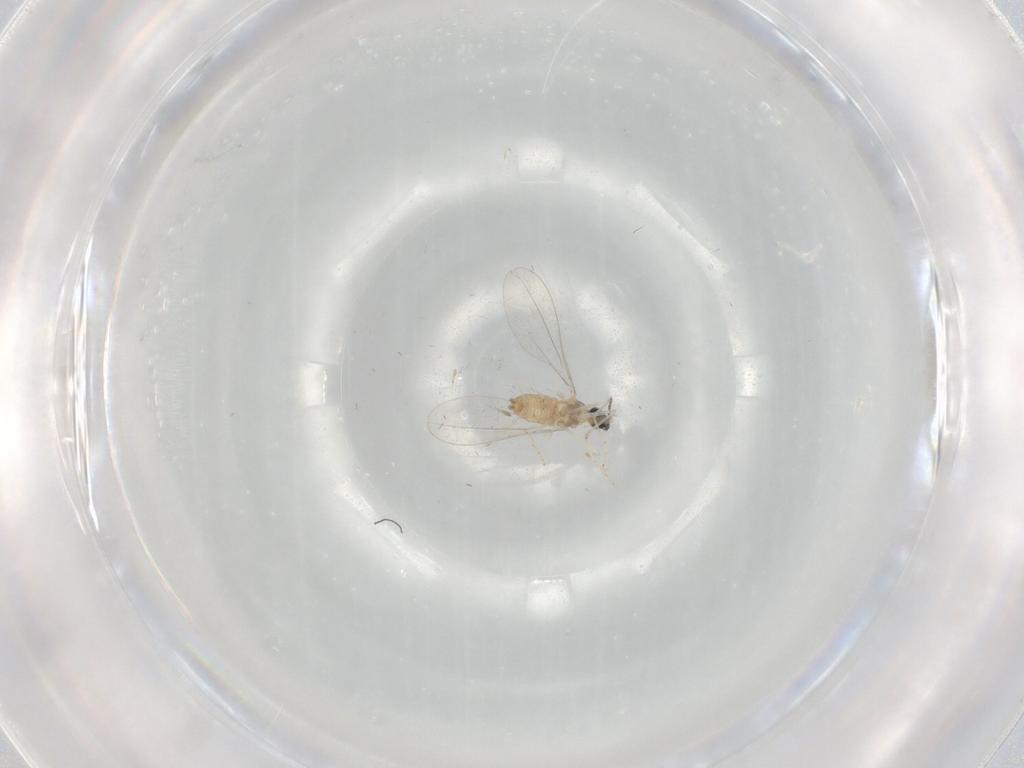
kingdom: Animalia
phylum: Arthropoda
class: Insecta
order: Diptera
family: Cecidomyiidae
